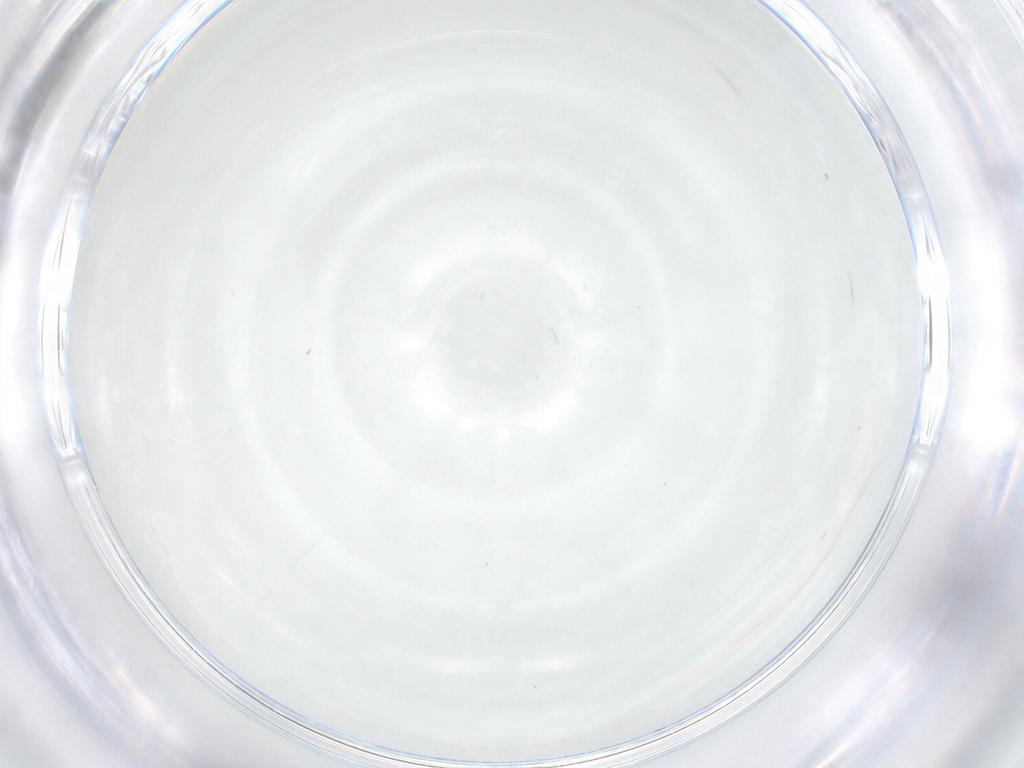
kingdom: Animalia
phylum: Arthropoda
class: Insecta
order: Diptera
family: Ceratopogonidae
